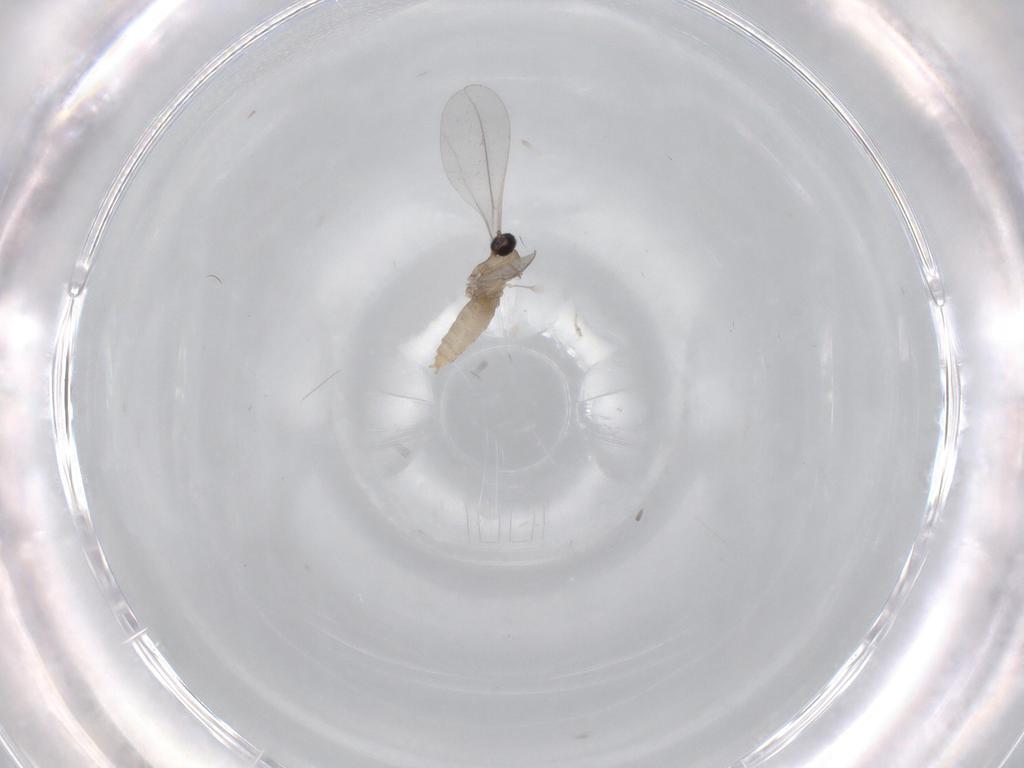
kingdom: Animalia
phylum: Arthropoda
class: Insecta
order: Diptera
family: Cecidomyiidae
